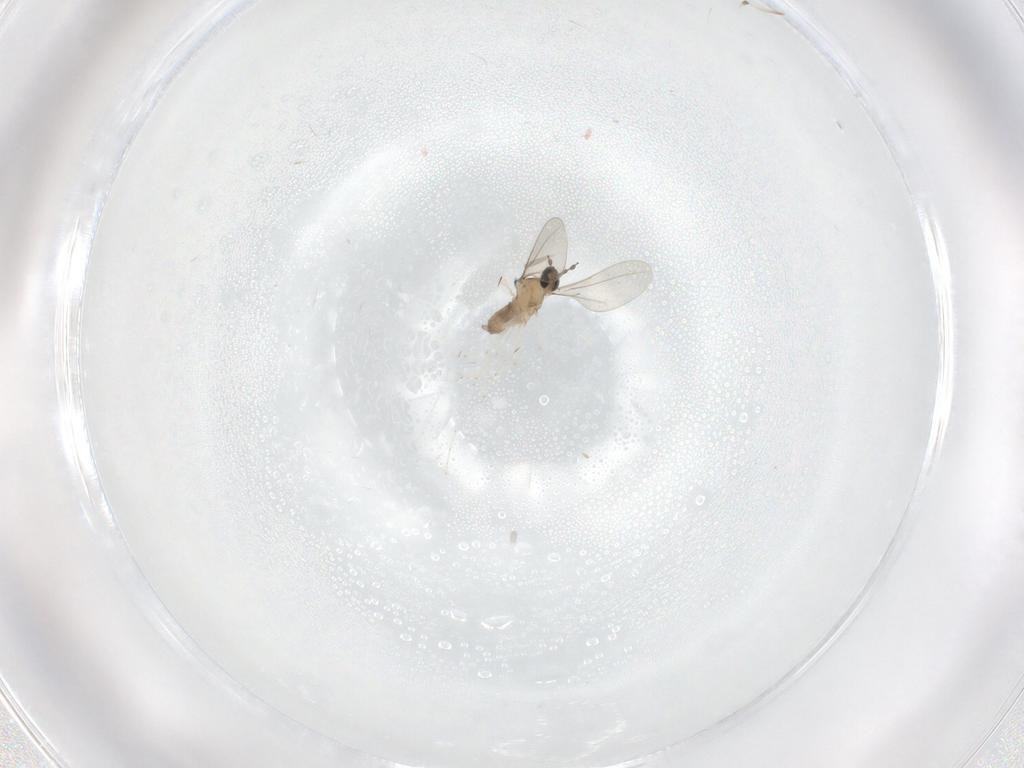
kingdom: Animalia
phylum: Arthropoda
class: Insecta
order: Diptera
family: Cecidomyiidae
